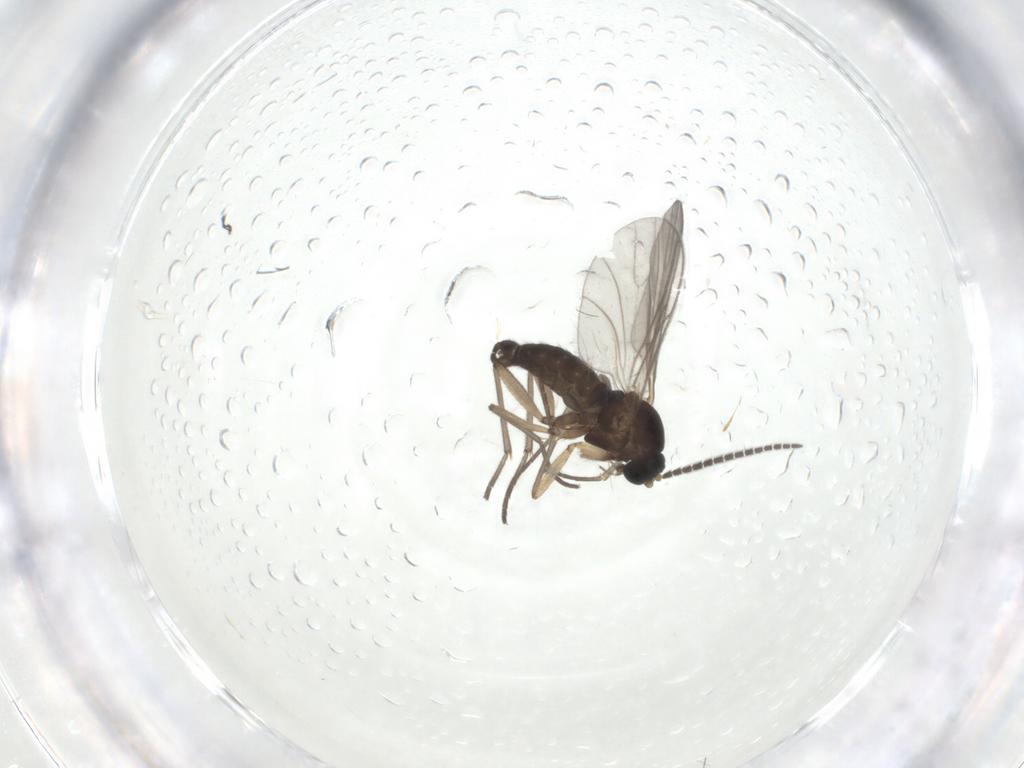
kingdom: Animalia
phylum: Arthropoda
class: Insecta
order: Diptera
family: Sciaridae
